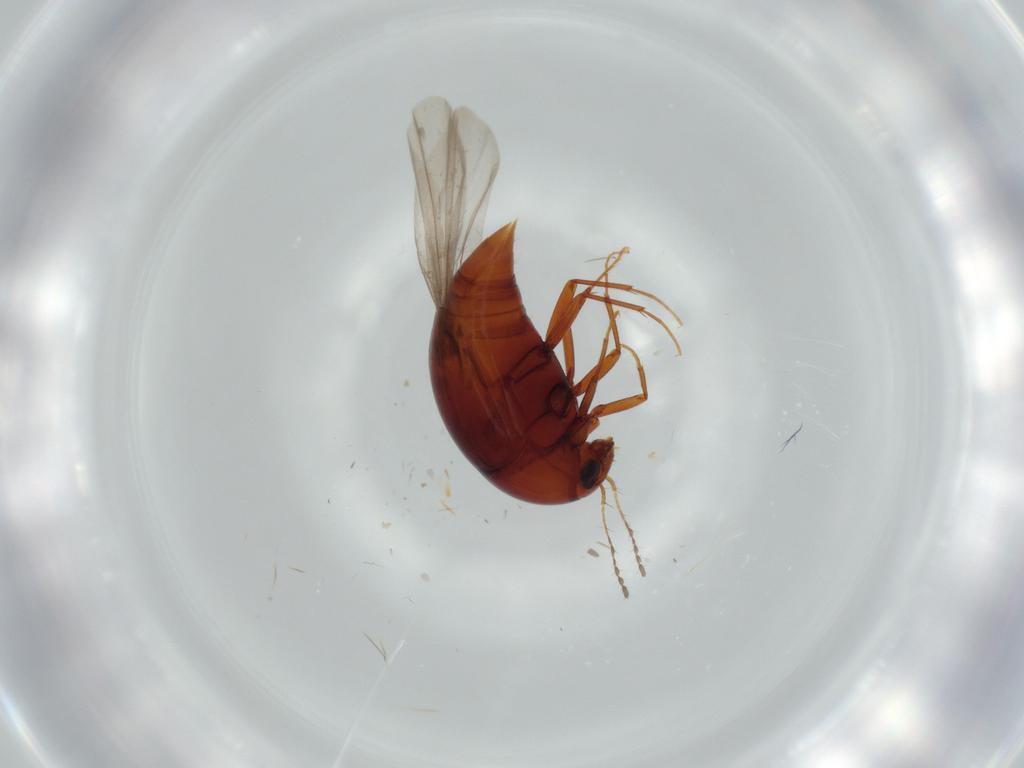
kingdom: Animalia
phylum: Arthropoda
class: Insecta
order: Coleoptera
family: Staphylinidae
